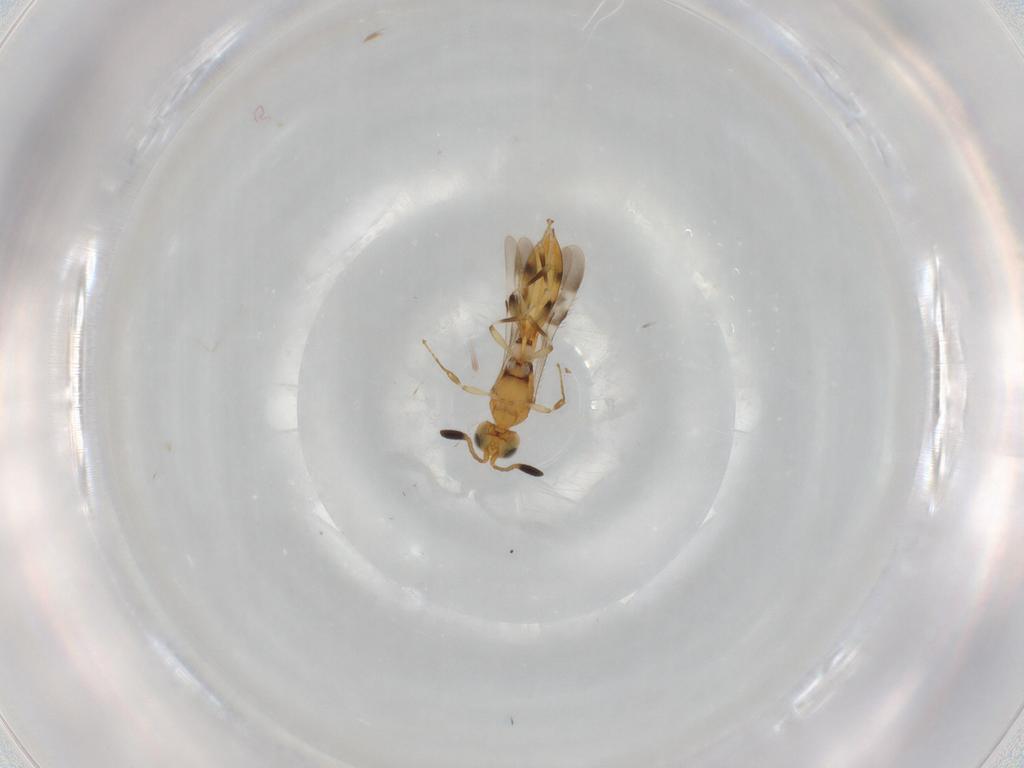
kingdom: Animalia
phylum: Arthropoda
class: Insecta
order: Hymenoptera
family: Scelionidae
